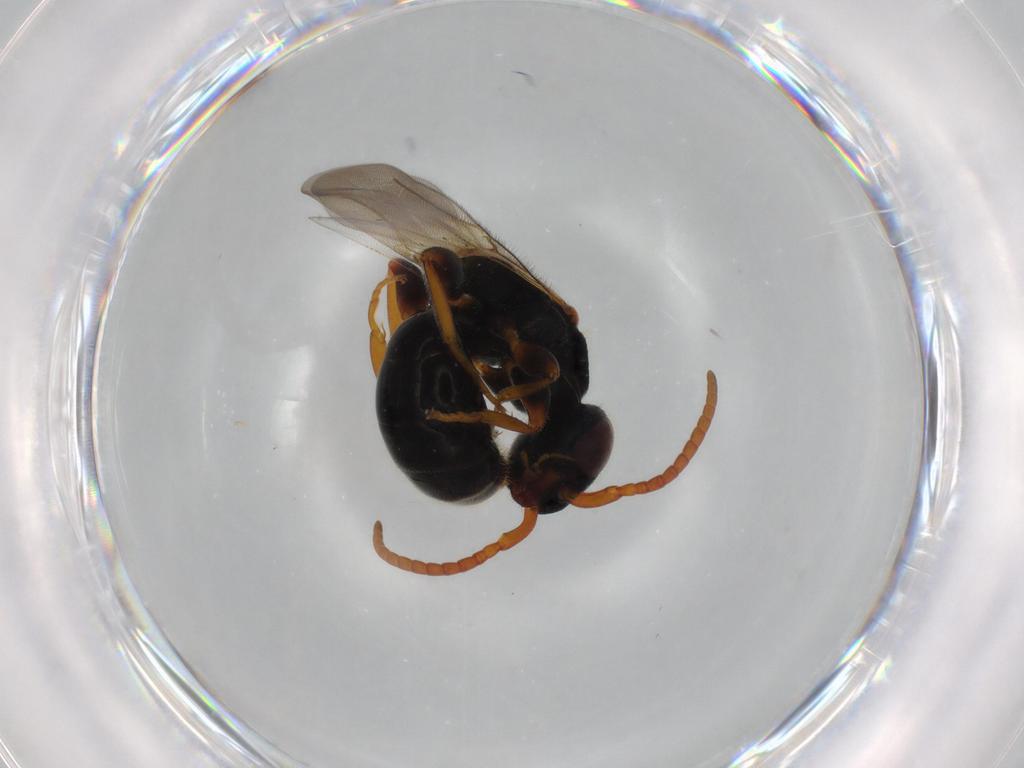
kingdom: Animalia
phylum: Arthropoda
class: Insecta
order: Hymenoptera
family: Bethylidae
